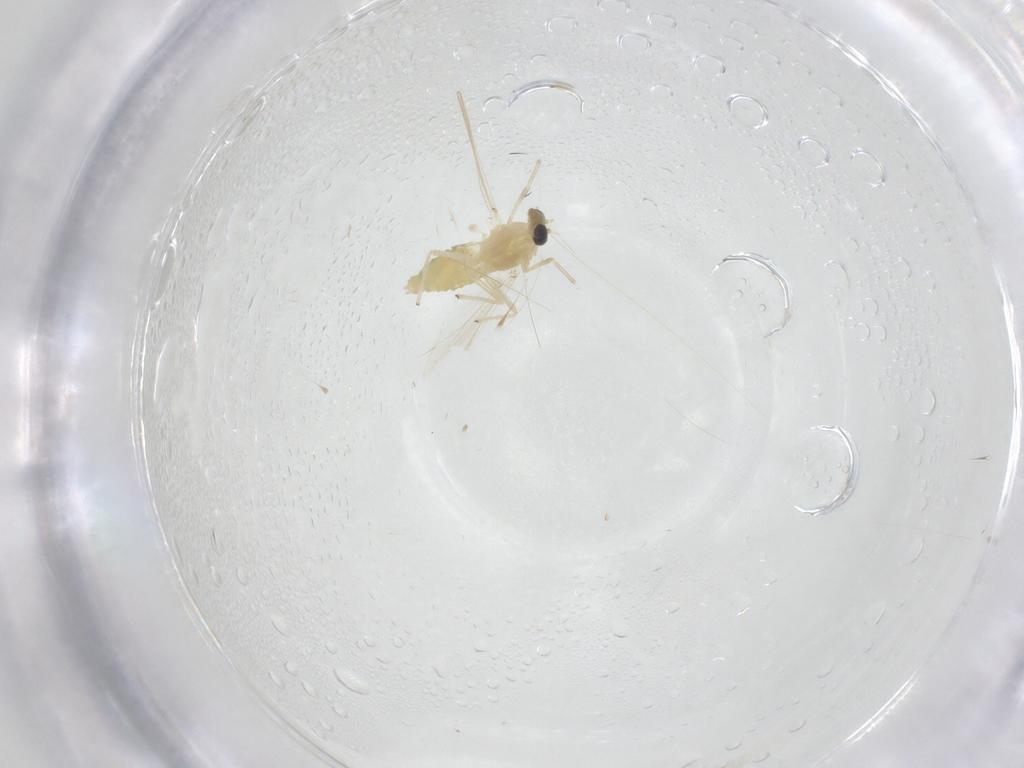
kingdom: Animalia
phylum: Arthropoda
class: Insecta
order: Diptera
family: Chironomidae
